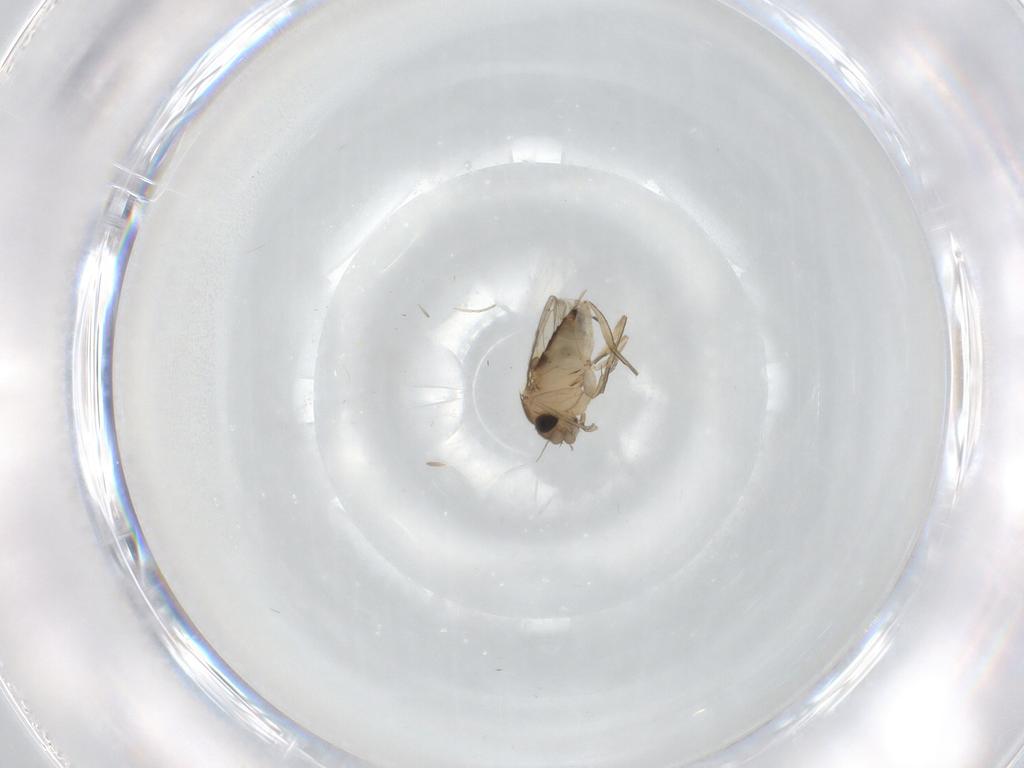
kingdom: Animalia
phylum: Arthropoda
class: Insecta
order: Diptera
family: Phoridae
